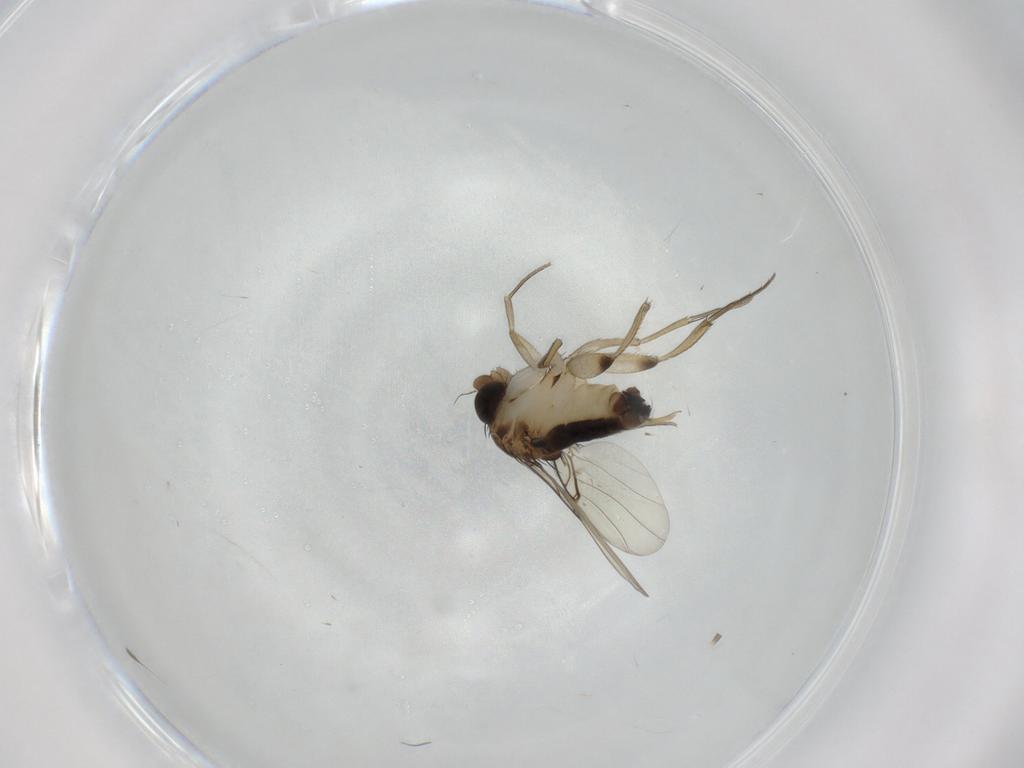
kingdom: Animalia
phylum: Arthropoda
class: Insecta
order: Diptera
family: Phoridae
